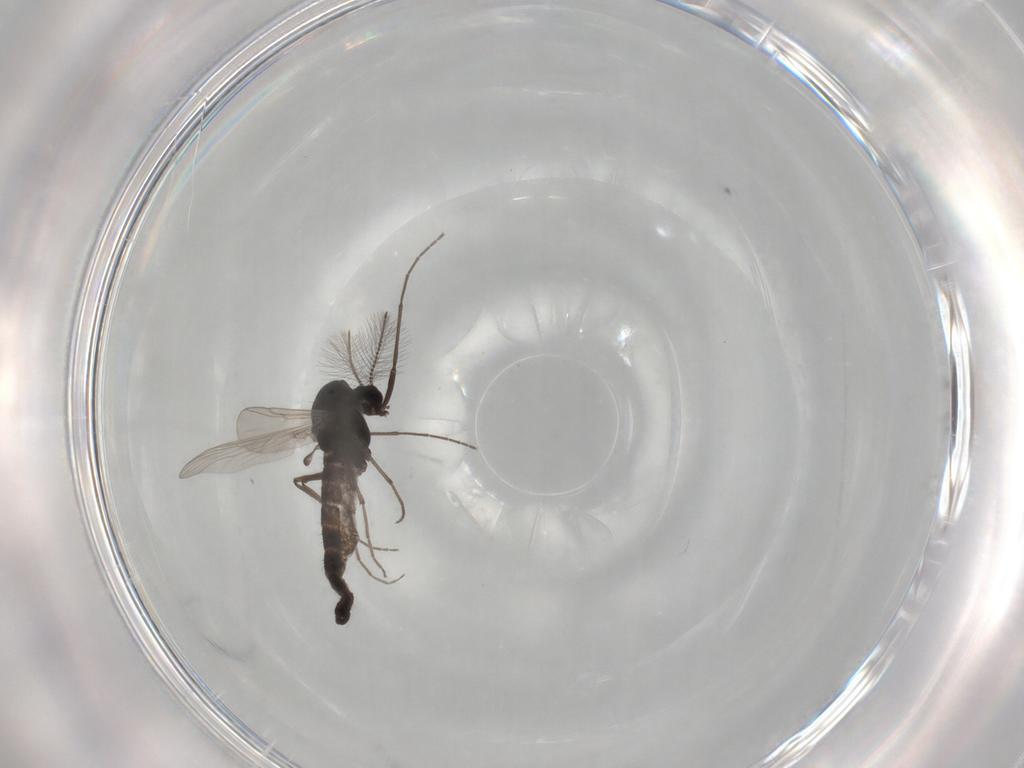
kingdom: Animalia
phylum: Arthropoda
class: Insecta
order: Diptera
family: Chironomidae
